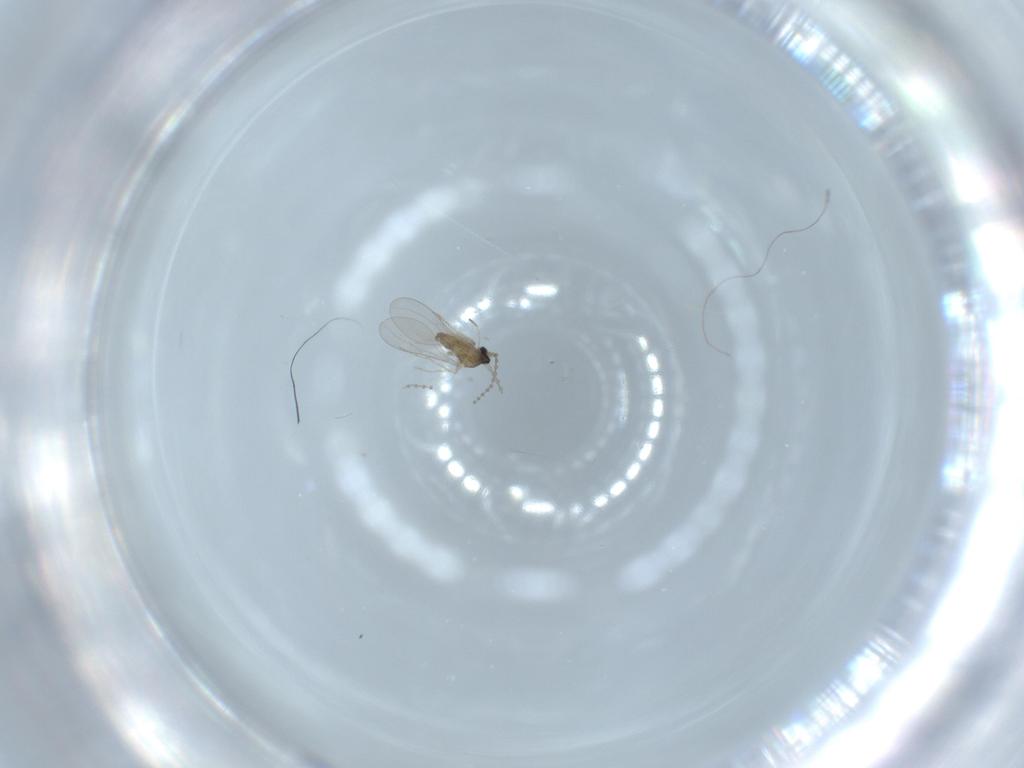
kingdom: Animalia
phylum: Arthropoda
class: Insecta
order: Diptera
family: Cecidomyiidae
